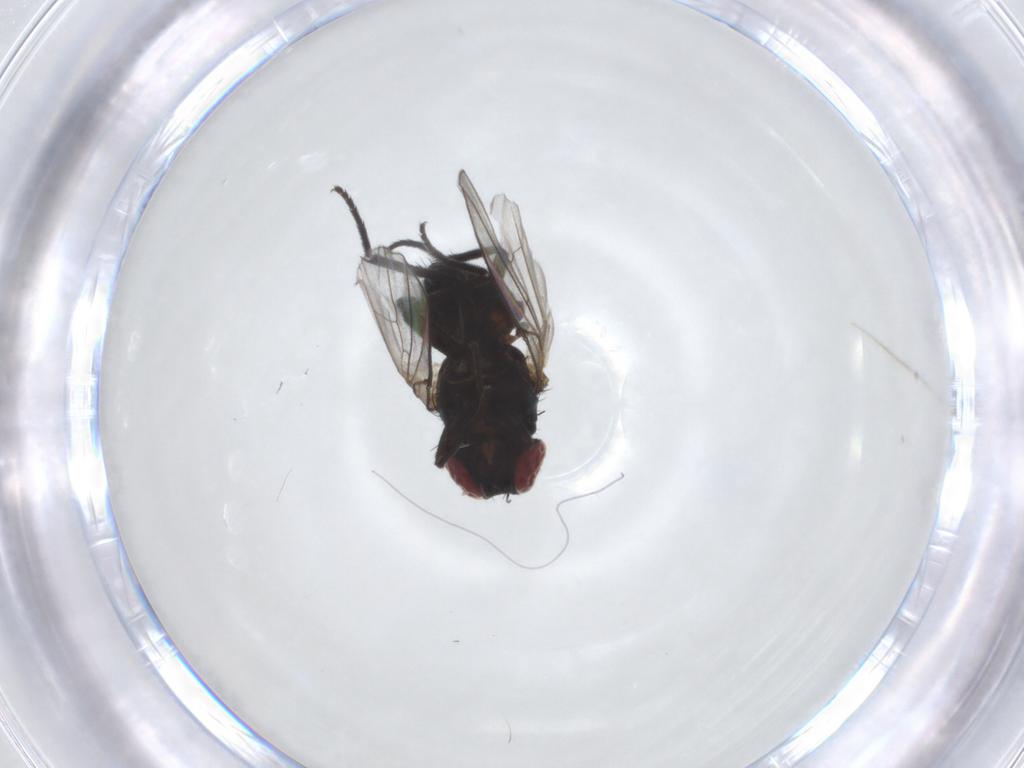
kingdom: Animalia
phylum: Arthropoda
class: Insecta
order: Diptera
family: Agromyzidae
